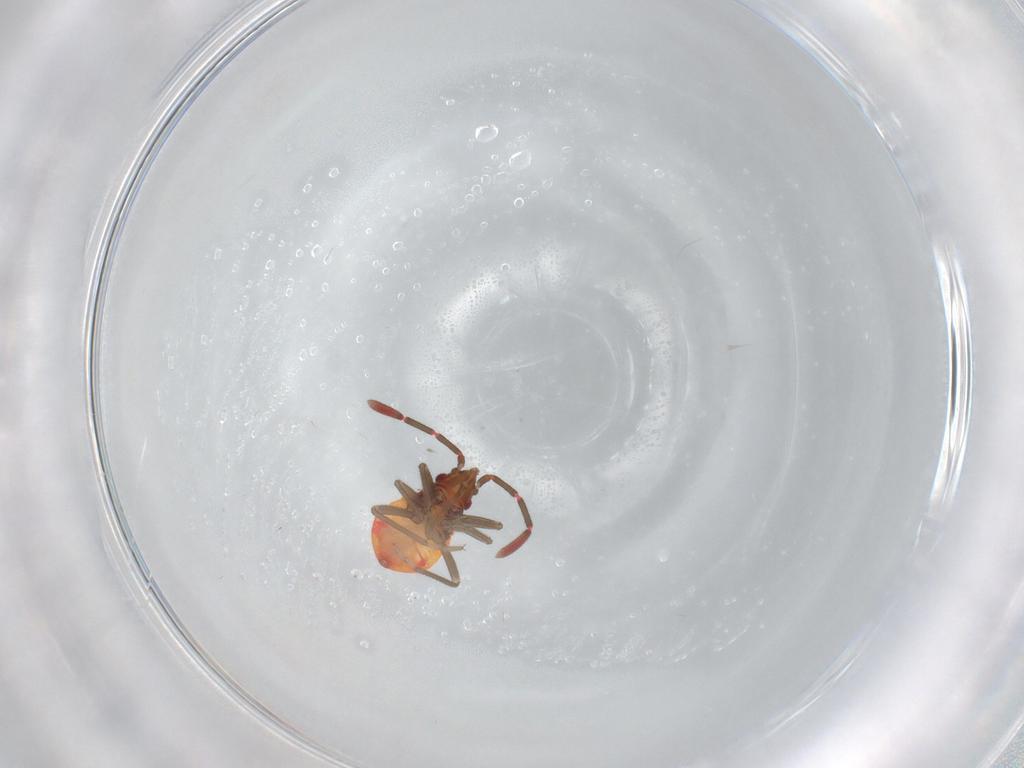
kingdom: Animalia
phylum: Arthropoda
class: Insecta
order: Hemiptera
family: Rhyparochromidae
